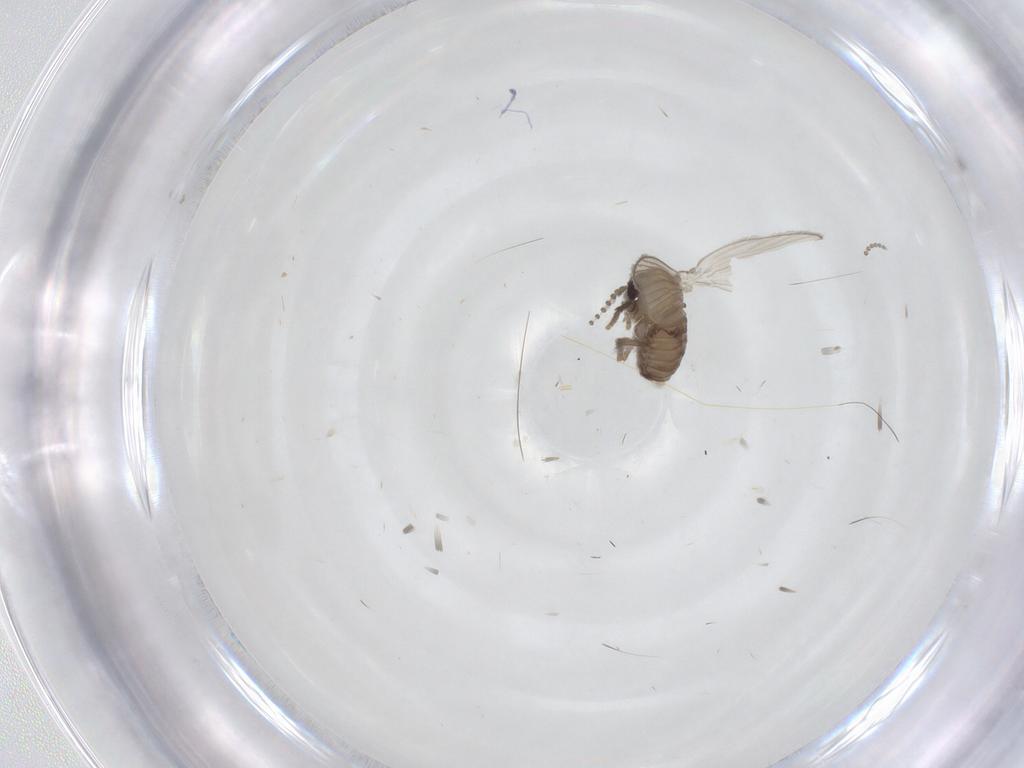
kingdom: Animalia
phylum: Arthropoda
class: Insecta
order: Diptera
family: Psychodidae
